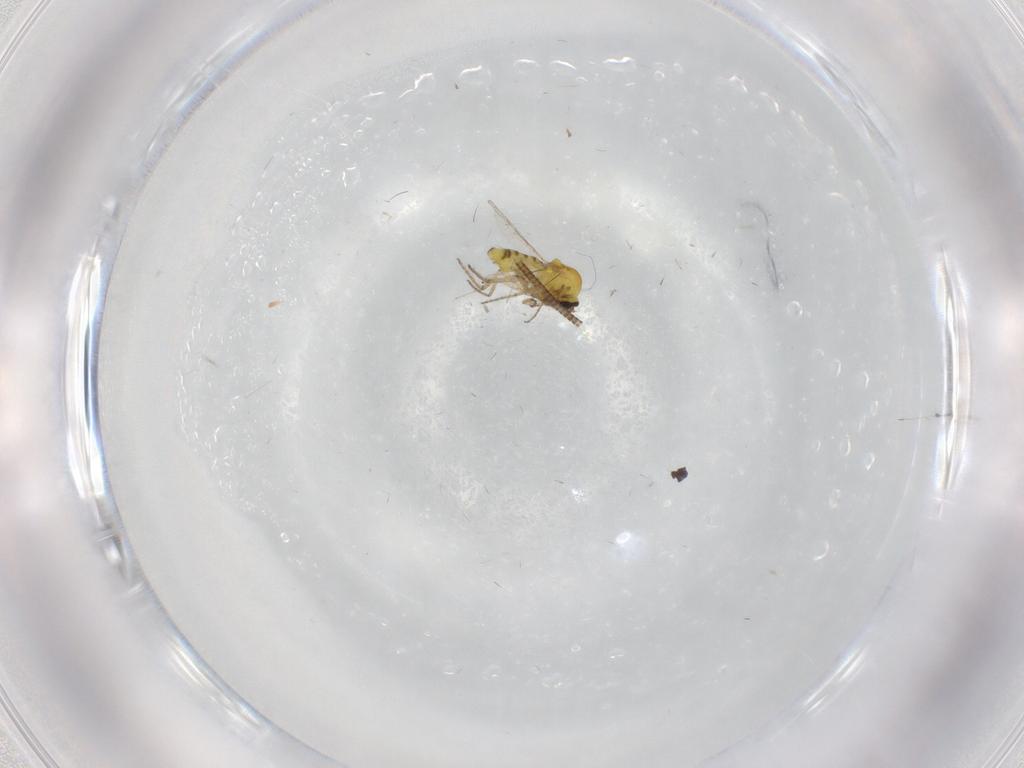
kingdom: Animalia
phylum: Arthropoda
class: Insecta
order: Diptera
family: Ceratopogonidae
